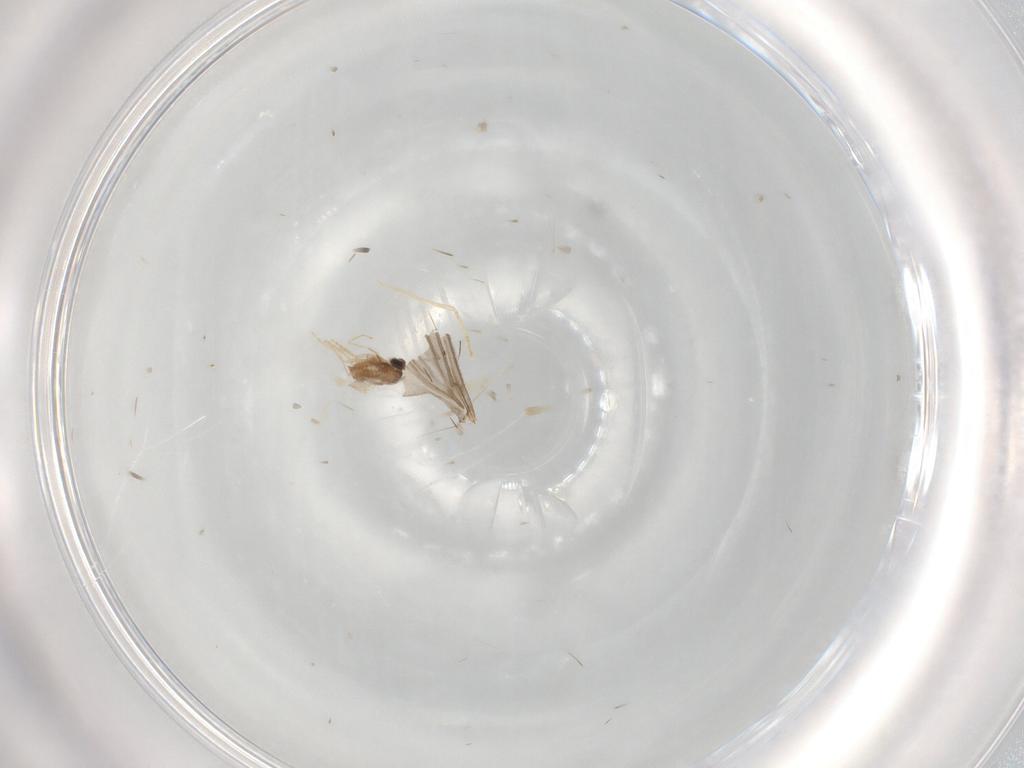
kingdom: Animalia
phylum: Arthropoda
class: Insecta
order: Diptera
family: Cecidomyiidae
